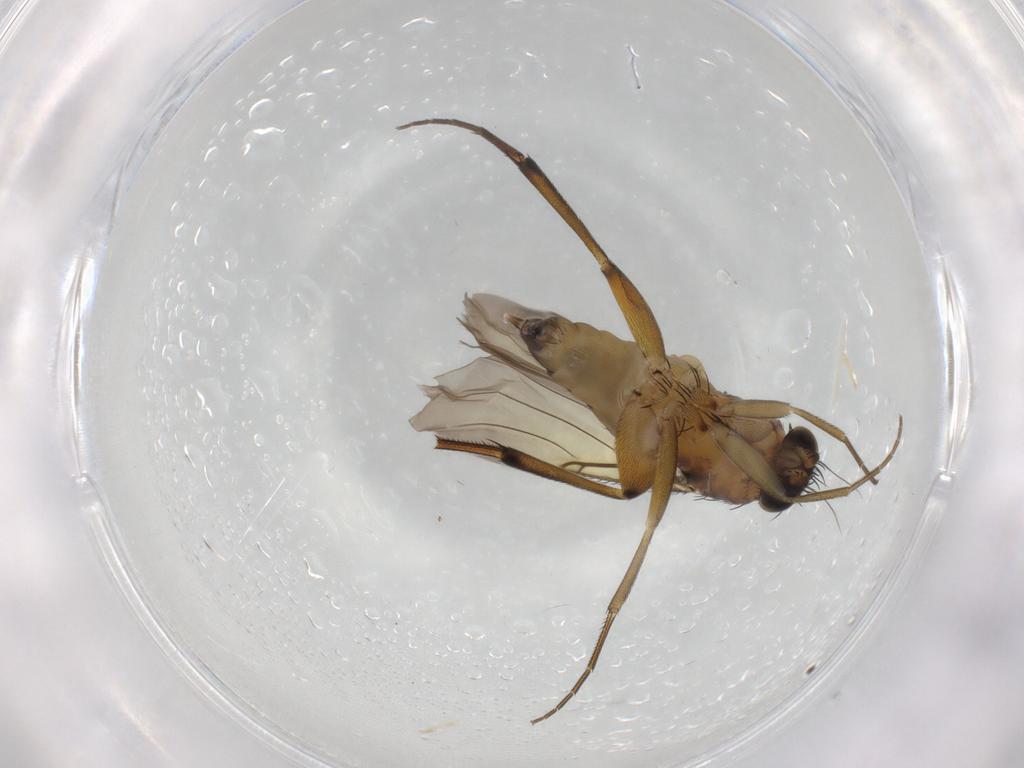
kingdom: Animalia
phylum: Arthropoda
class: Insecta
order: Diptera
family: Phoridae
